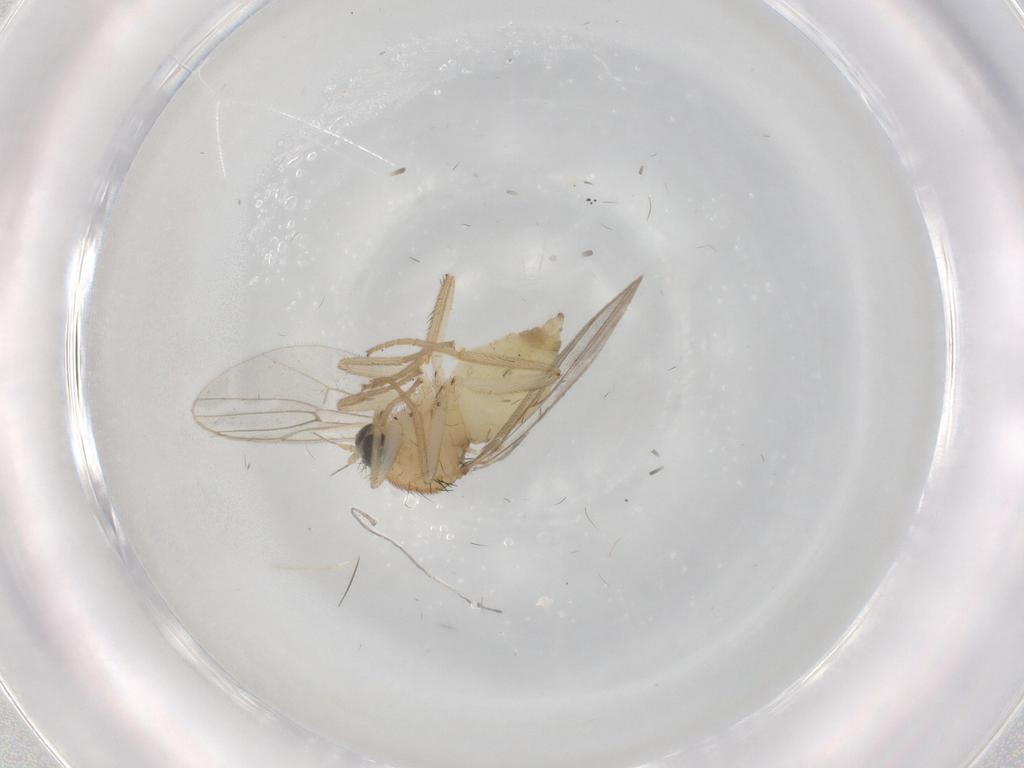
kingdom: Animalia
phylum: Arthropoda
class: Insecta
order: Diptera
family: Hybotidae
